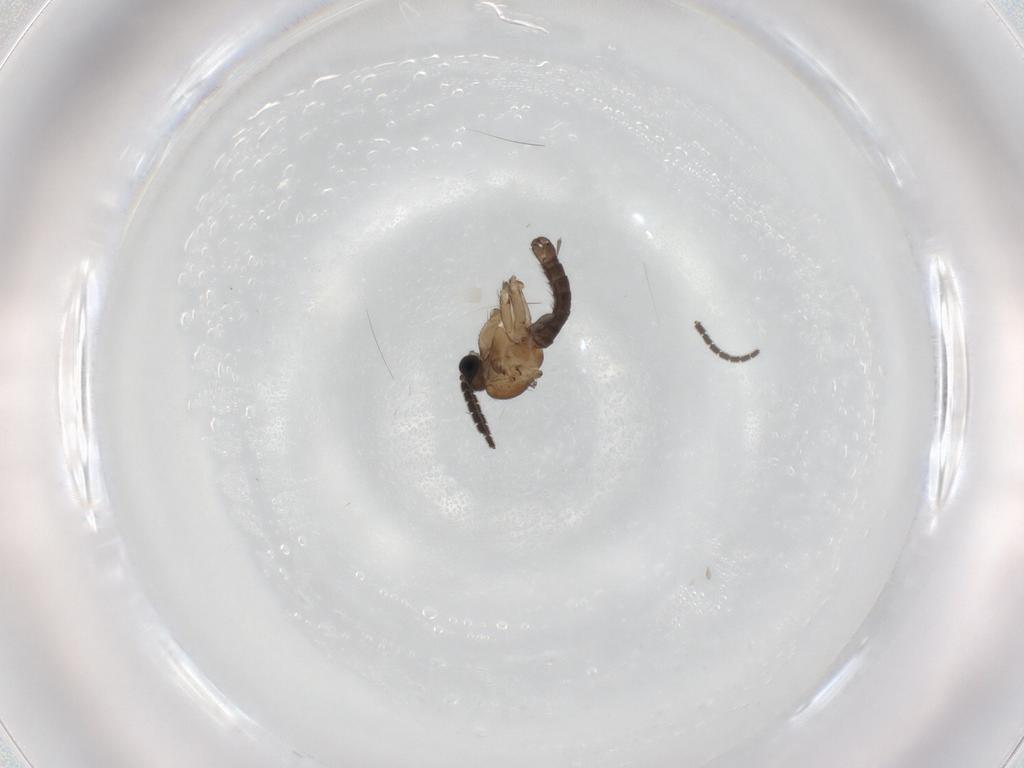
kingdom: Animalia
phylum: Arthropoda
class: Insecta
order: Diptera
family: Sciaridae
